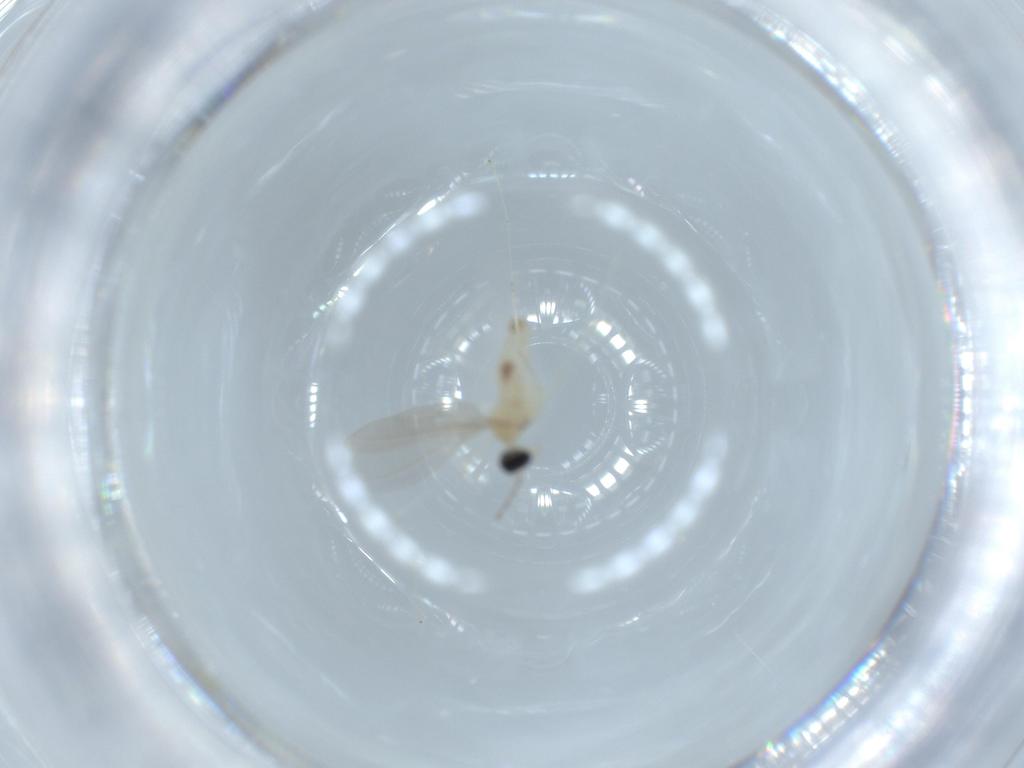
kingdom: Animalia
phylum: Arthropoda
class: Insecta
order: Diptera
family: Cecidomyiidae
